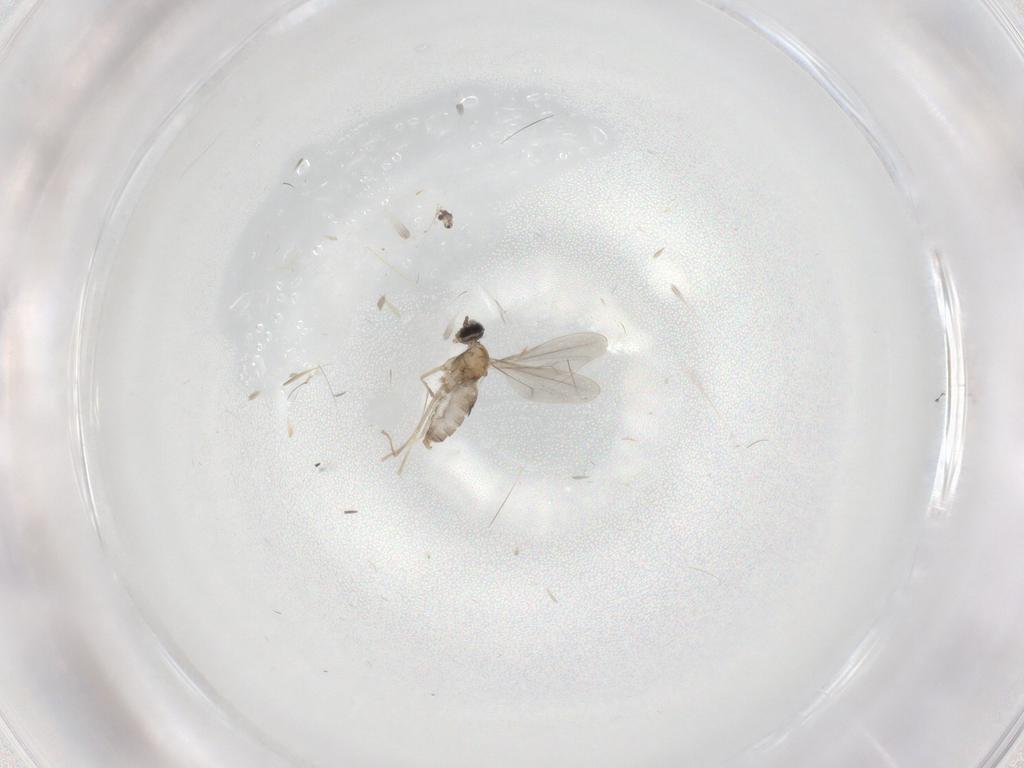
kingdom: Animalia
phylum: Arthropoda
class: Insecta
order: Diptera
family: Cecidomyiidae
